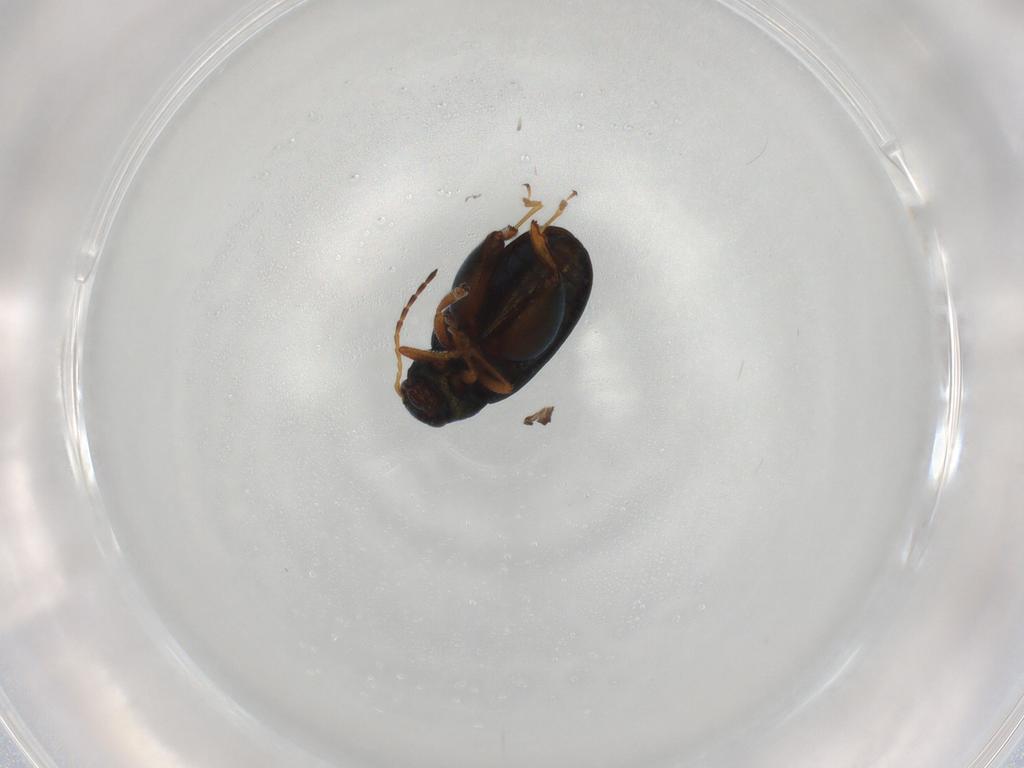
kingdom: Animalia
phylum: Arthropoda
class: Insecta
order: Coleoptera
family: Chrysomelidae
